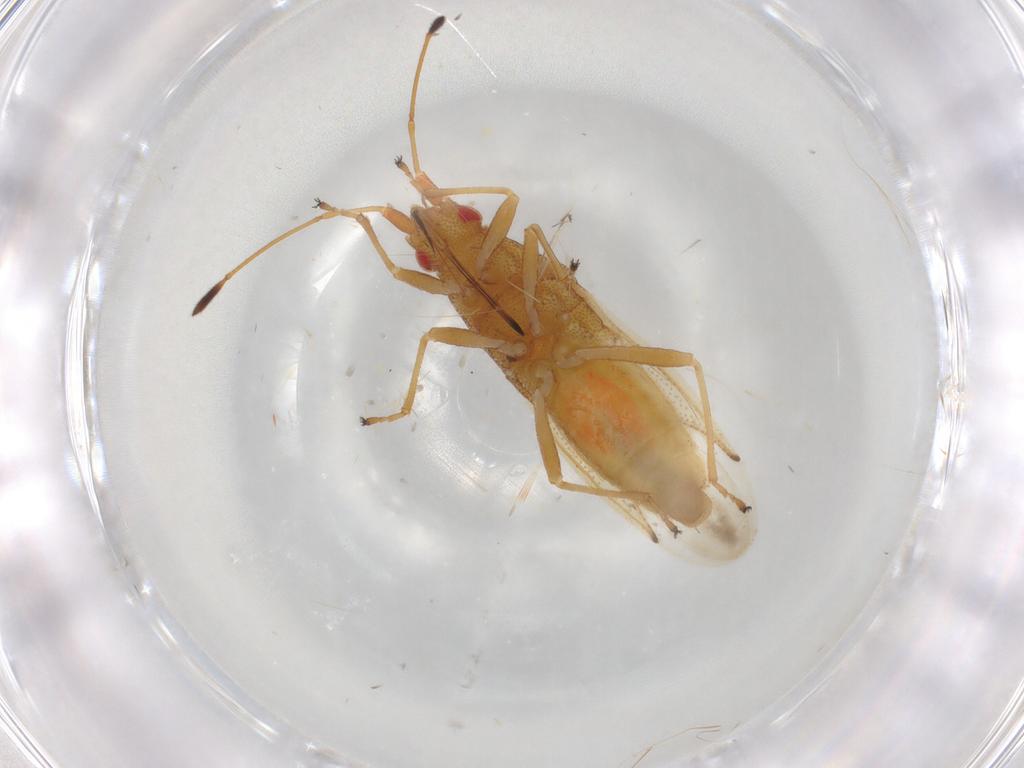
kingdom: Animalia
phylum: Arthropoda
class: Insecta
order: Hemiptera
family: Cymidae
